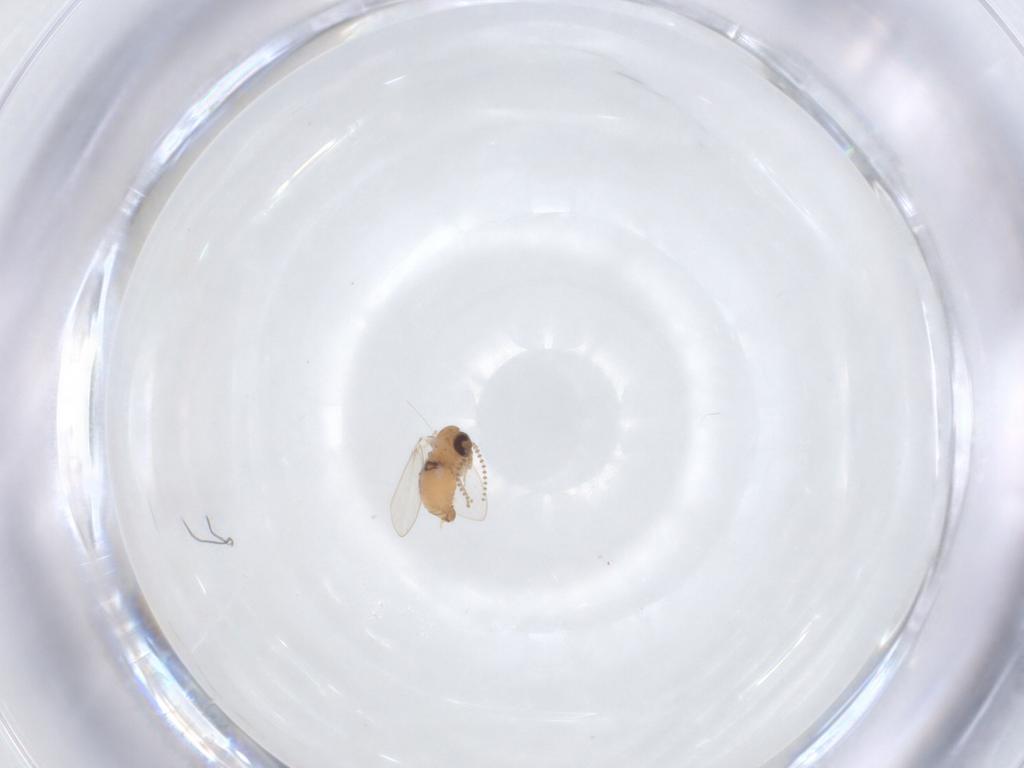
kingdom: Animalia
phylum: Arthropoda
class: Insecta
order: Diptera
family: Psychodidae
